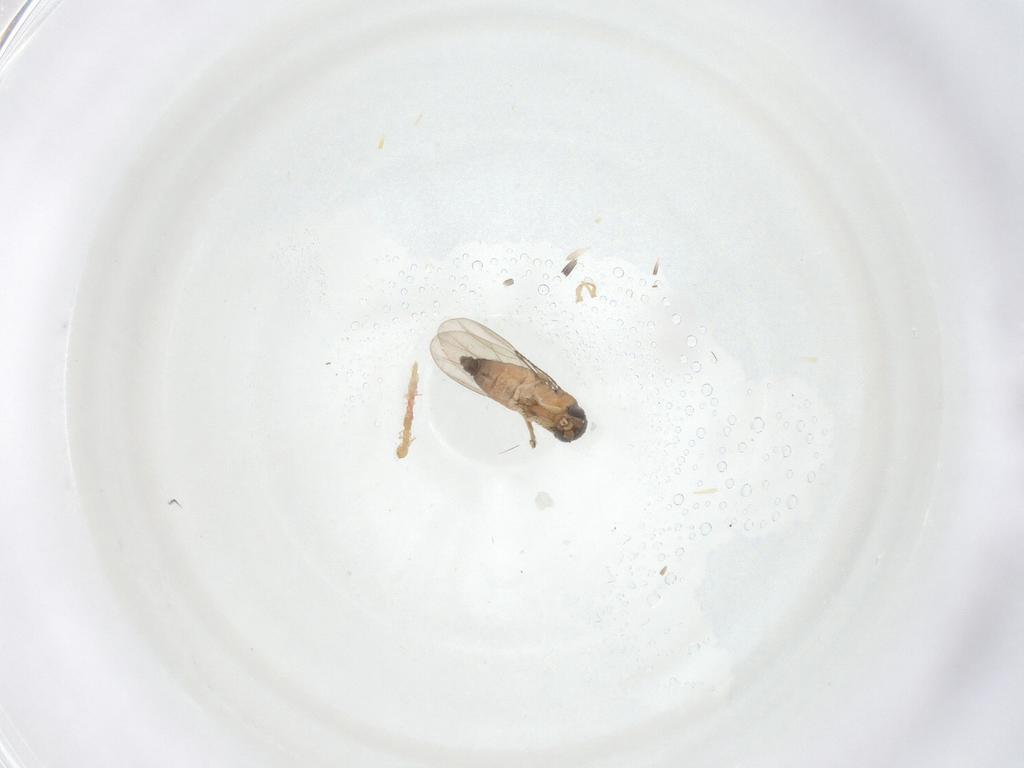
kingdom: Animalia
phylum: Arthropoda
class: Insecta
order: Diptera
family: Phoridae
